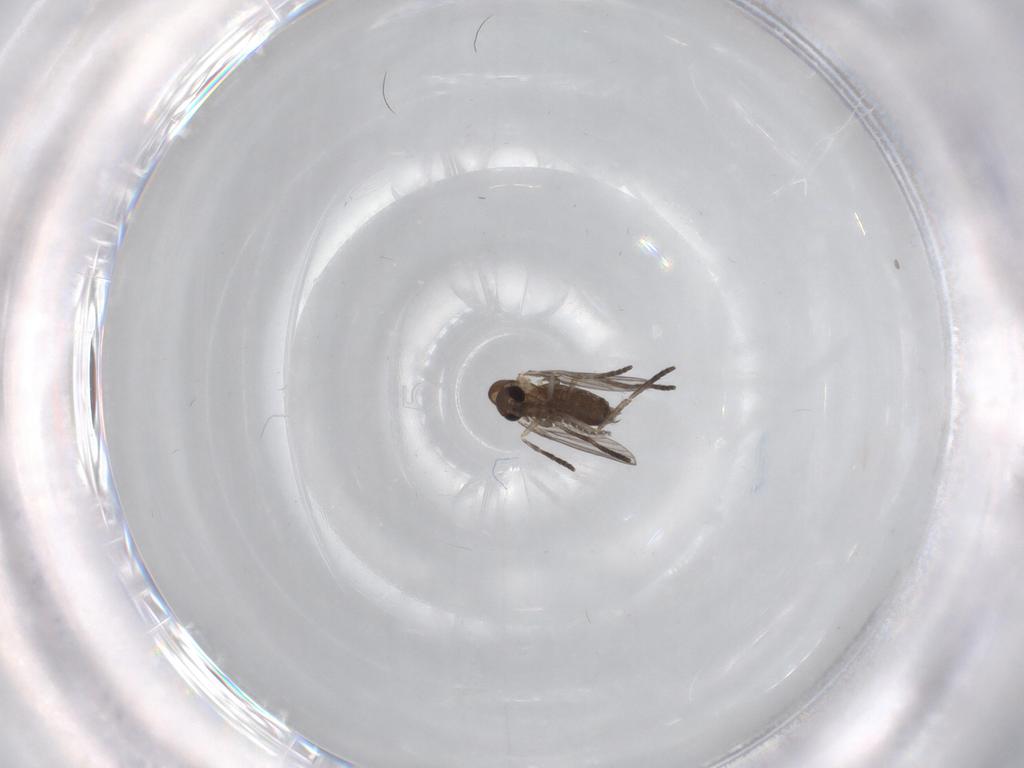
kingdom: Animalia
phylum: Arthropoda
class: Insecta
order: Diptera
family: Psychodidae
